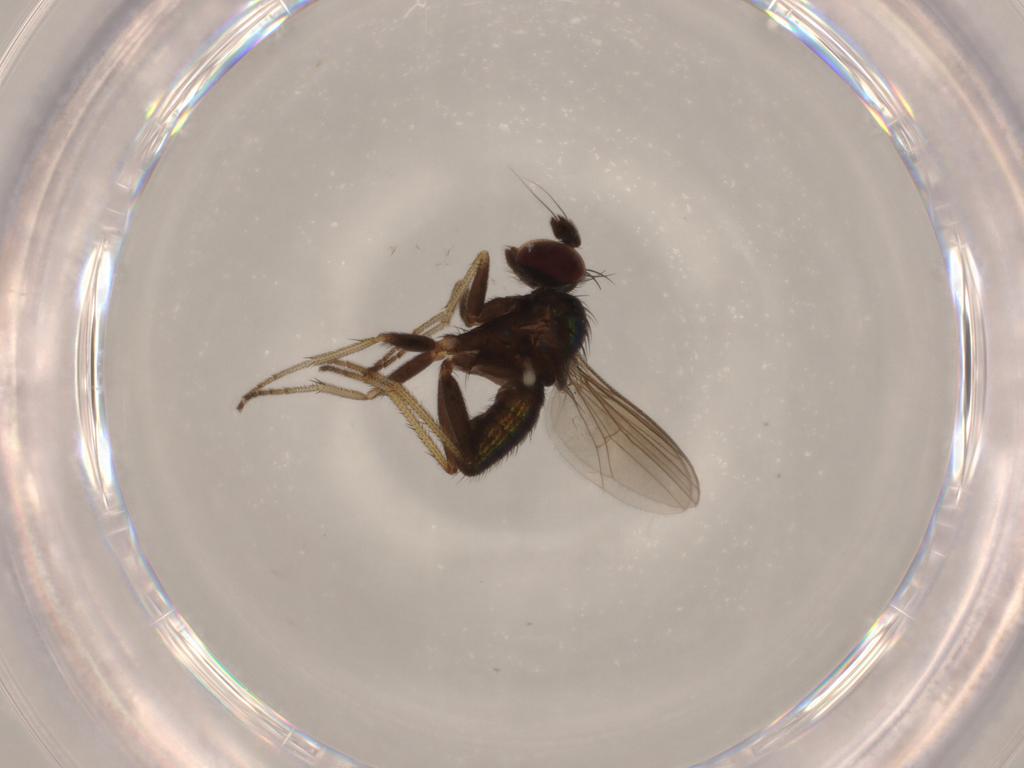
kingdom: Animalia
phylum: Arthropoda
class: Insecta
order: Diptera
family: Dolichopodidae
